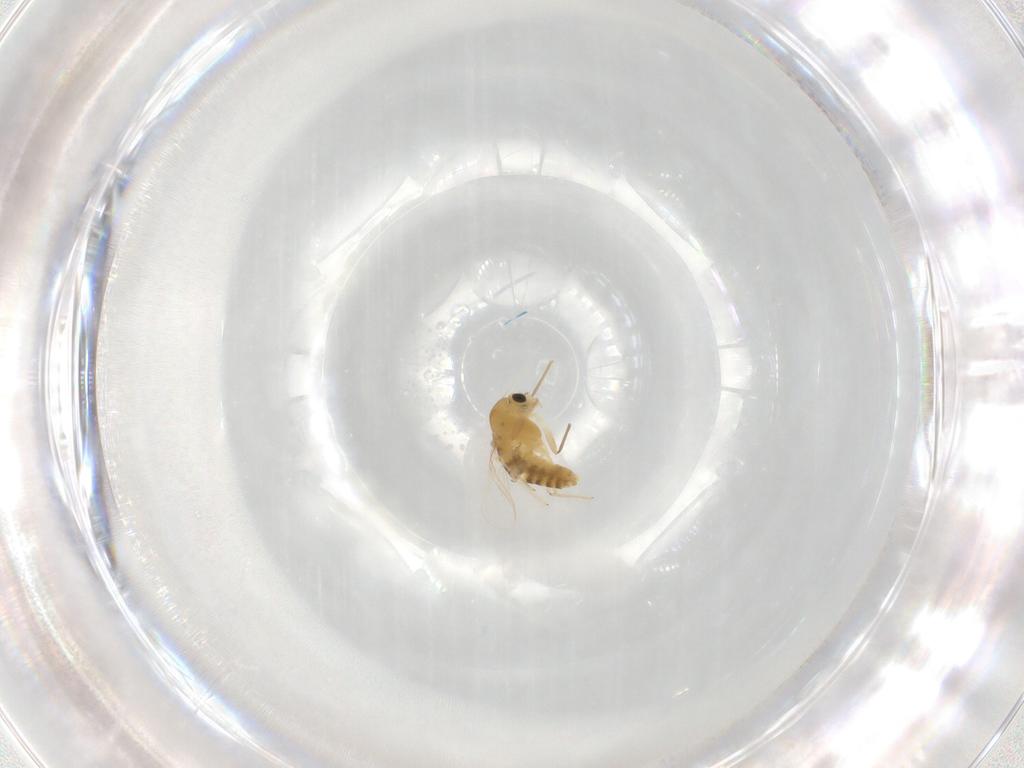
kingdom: Animalia
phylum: Arthropoda
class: Insecta
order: Diptera
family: Chironomidae
